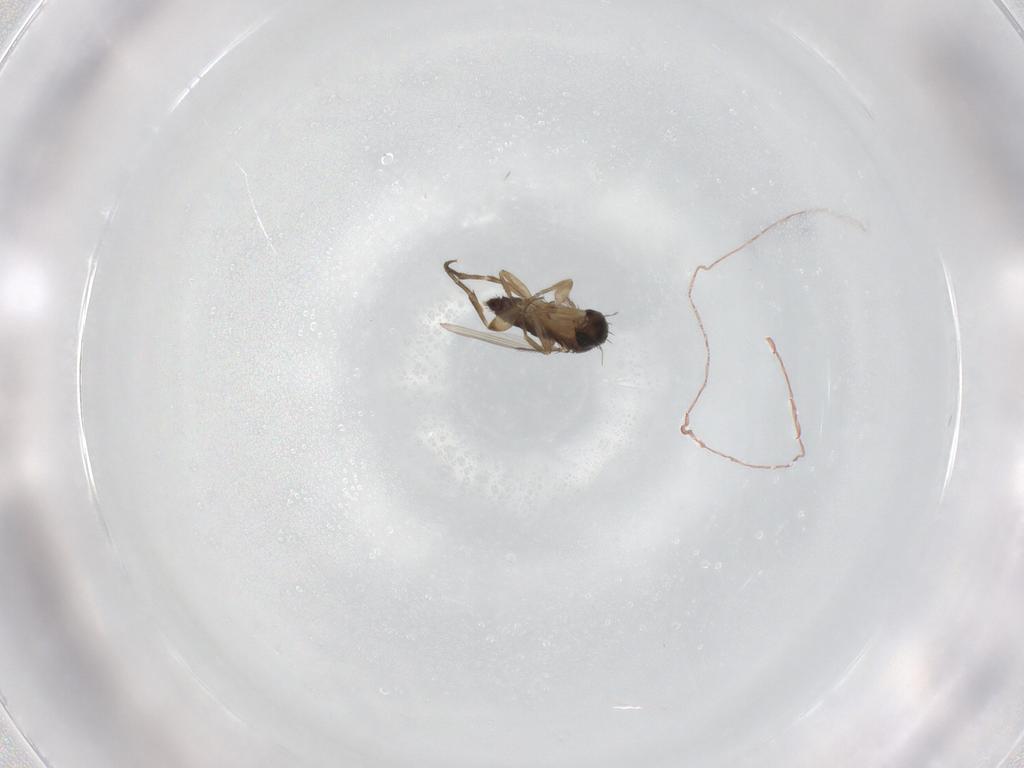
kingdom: Animalia
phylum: Arthropoda
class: Insecta
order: Diptera
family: Phoridae
